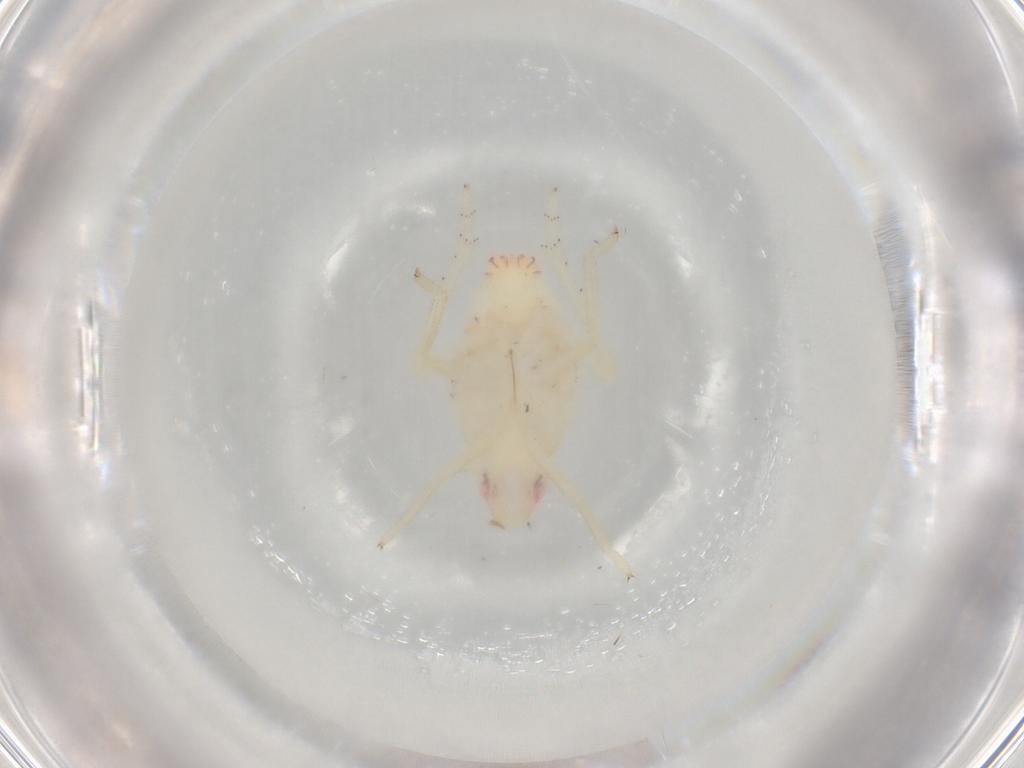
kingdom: Animalia
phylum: Arthropoda
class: Insecta
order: Hemiptera
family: Tropiduchidae
